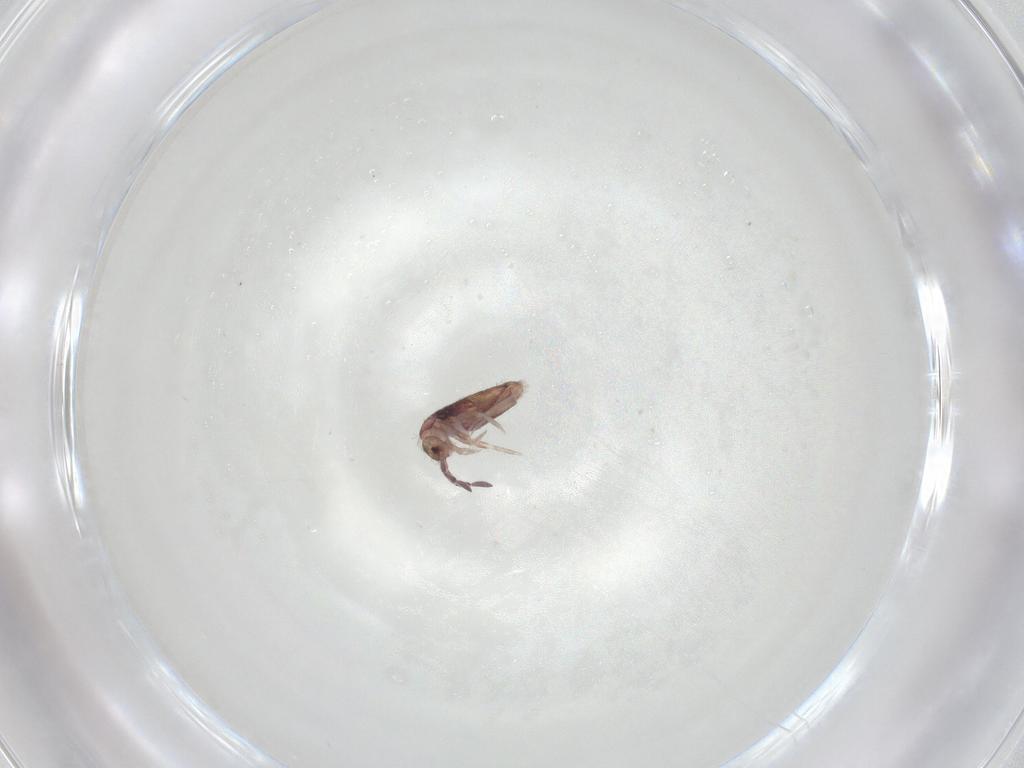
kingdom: Animalia
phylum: Arthropoda
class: Collembola
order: Entomobryomorpha
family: Entomobryidae
